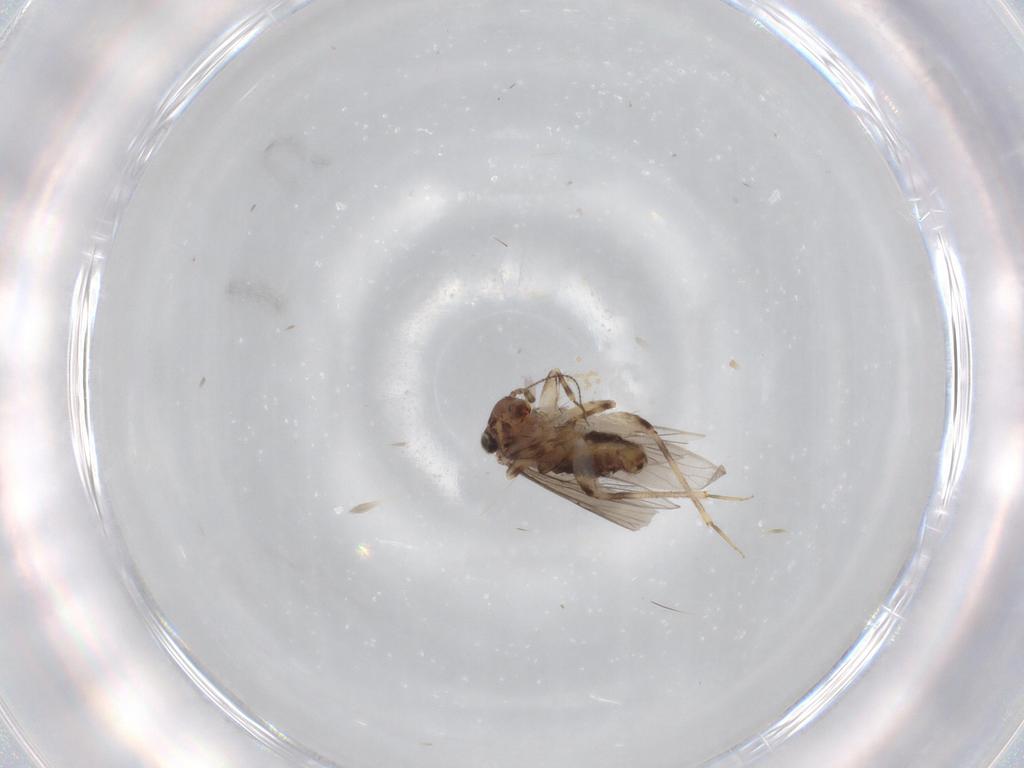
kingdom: Animalia
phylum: Arthropoda
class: Insecta
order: Psocodea
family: Lepidopsocidae
